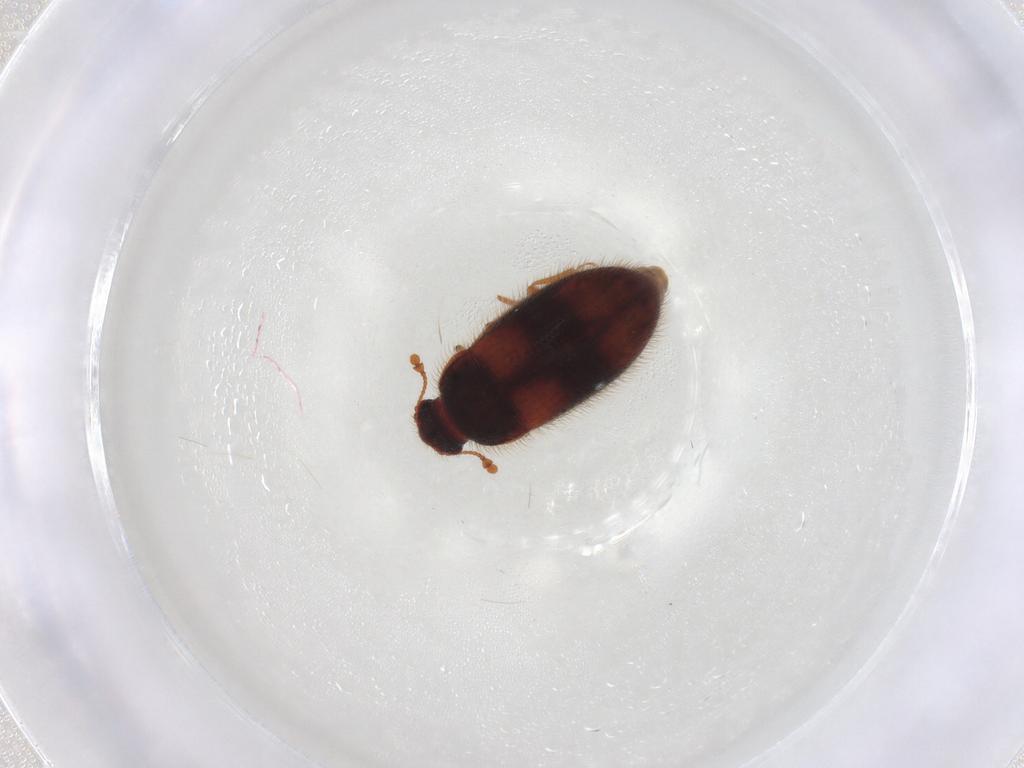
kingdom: Animalia
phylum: Arthropoda
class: Insecta
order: Coleoptera
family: Biphyllidae
